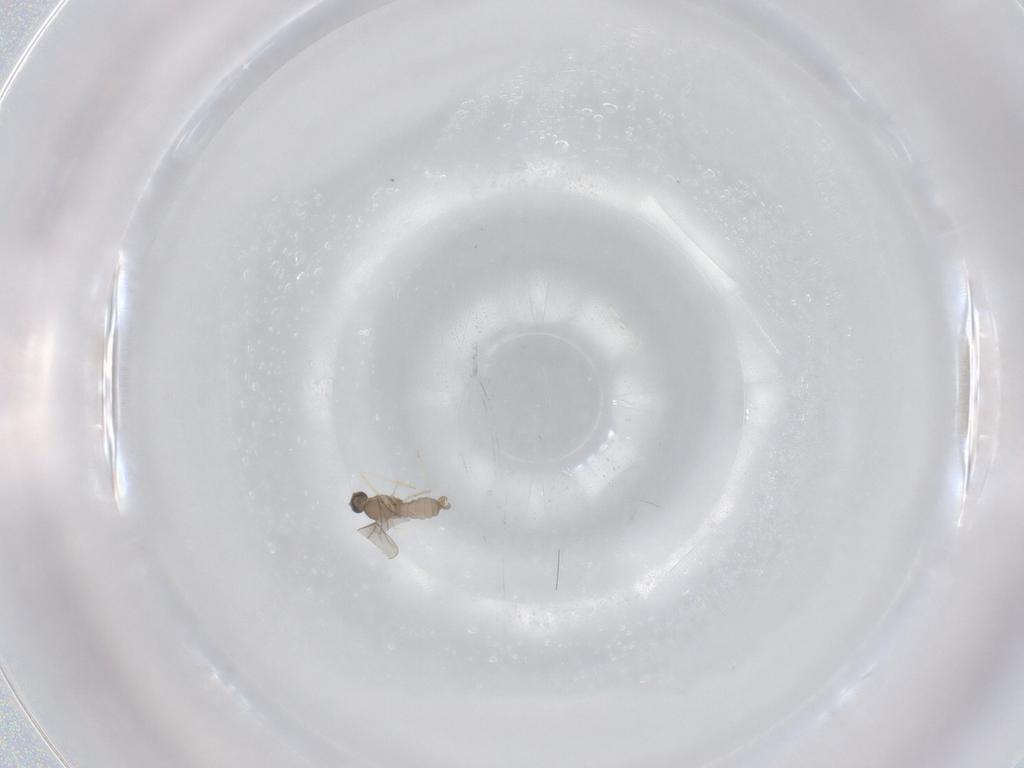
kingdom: Animalia
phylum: Arthropoda
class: Insecta
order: Diptera
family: Cecidomyiidae
